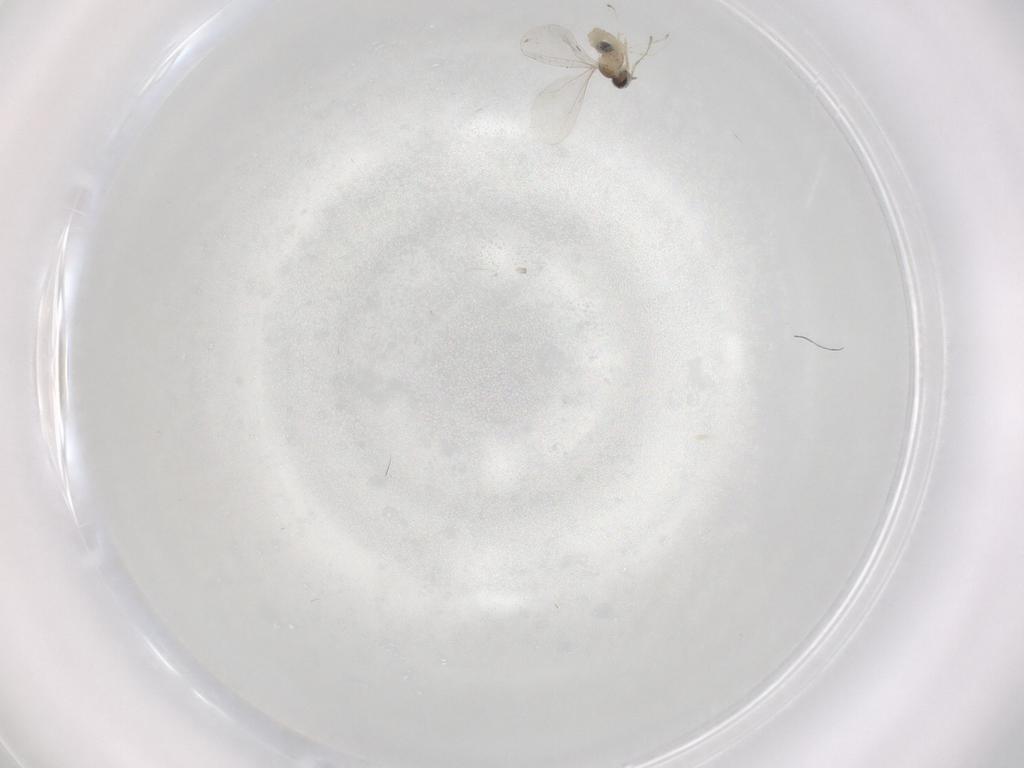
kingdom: Animalia
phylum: Arthropoda
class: Insecta
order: Diptera
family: Cecidomyiidae
